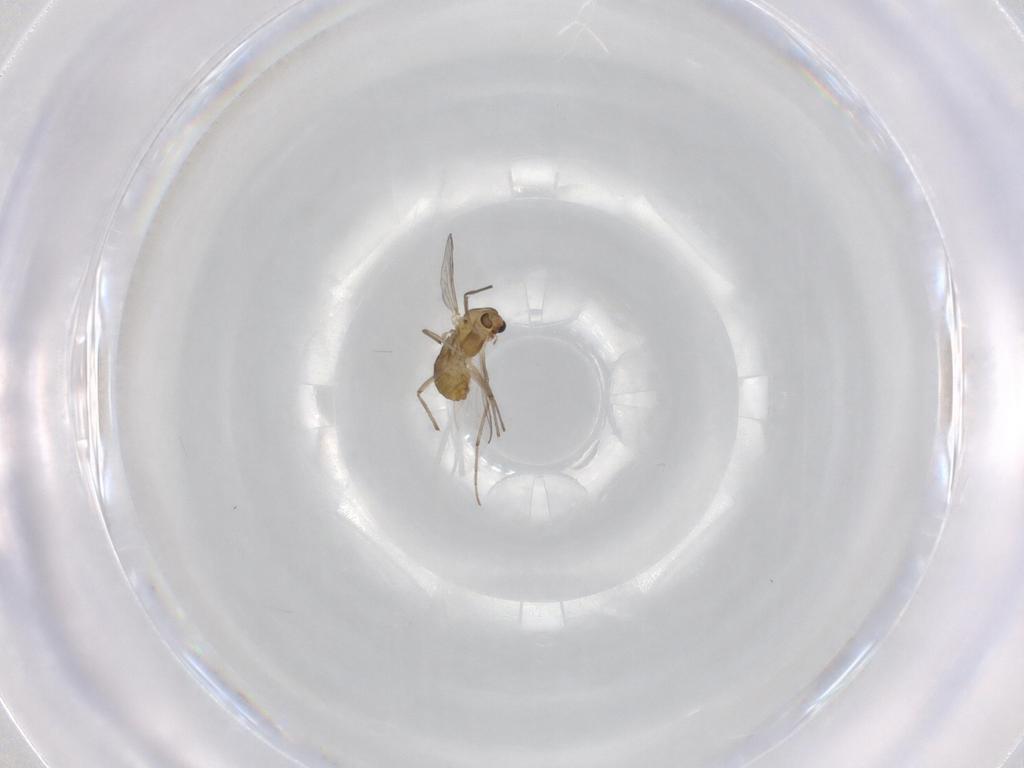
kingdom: Animalia
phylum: Arthropoda
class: Insecta
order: Diptera
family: Chironomidae
